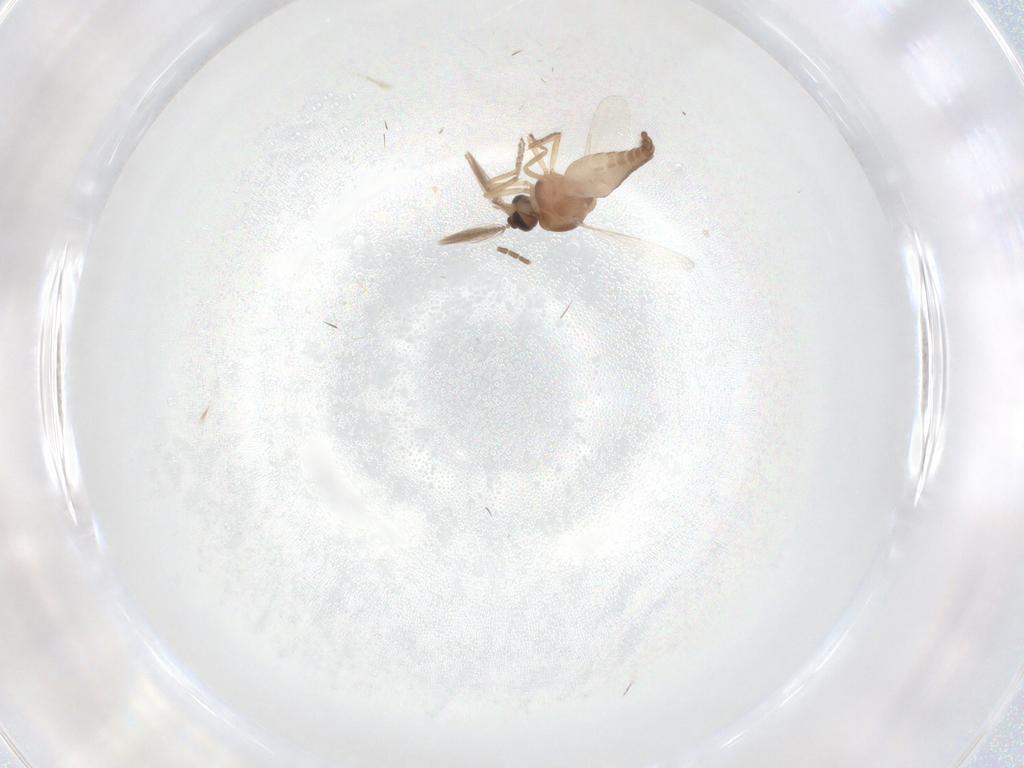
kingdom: Animalia
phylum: Arthropoda
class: Insecta
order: Diptera
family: Ceratopogonidae
